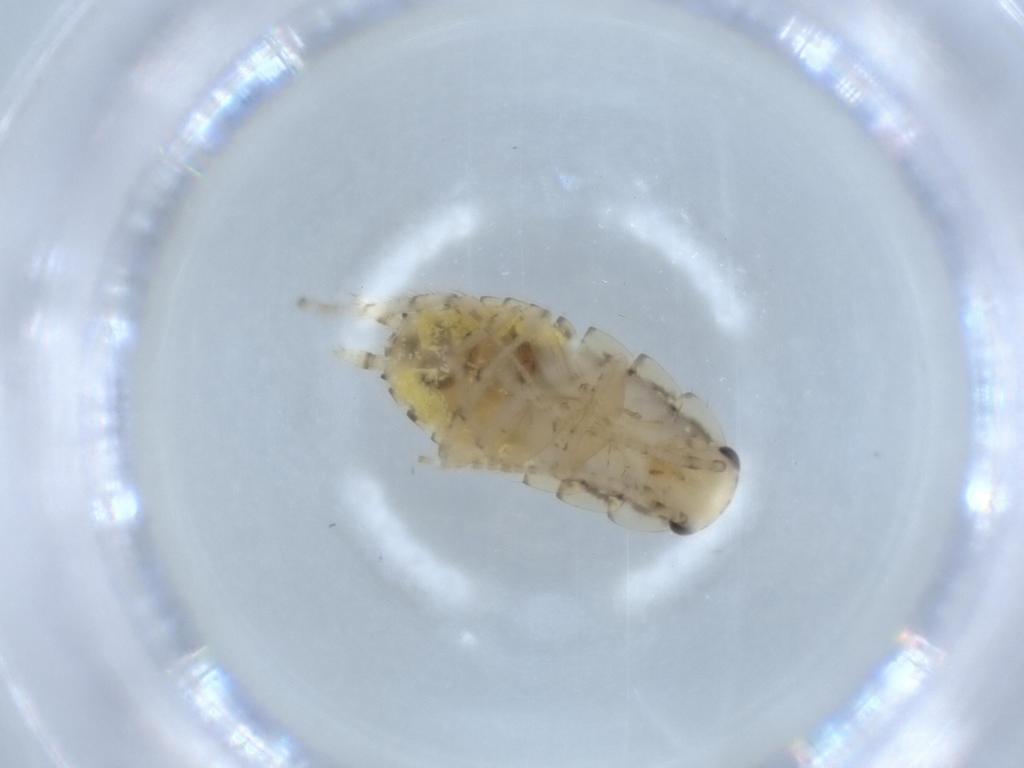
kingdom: Animalia
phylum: Arthropoda
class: Insecta
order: Blattodea
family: Ectobiidae
